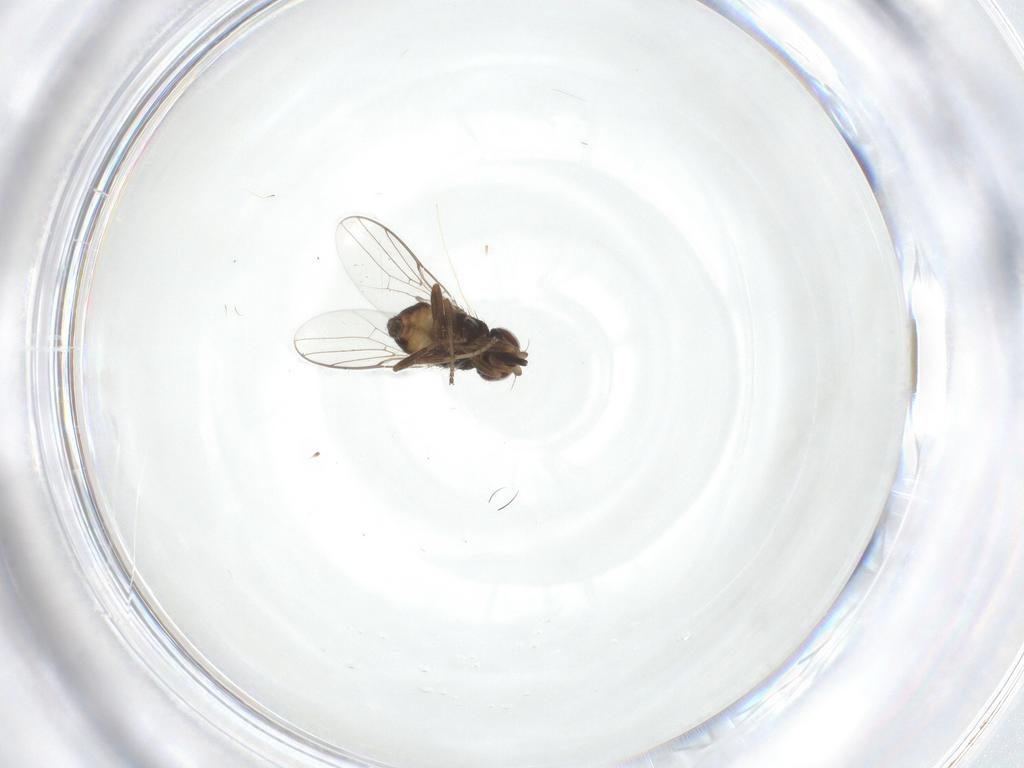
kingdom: Animalia
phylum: Arthropoda
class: Insecta
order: Diptera
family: Chloropidae
